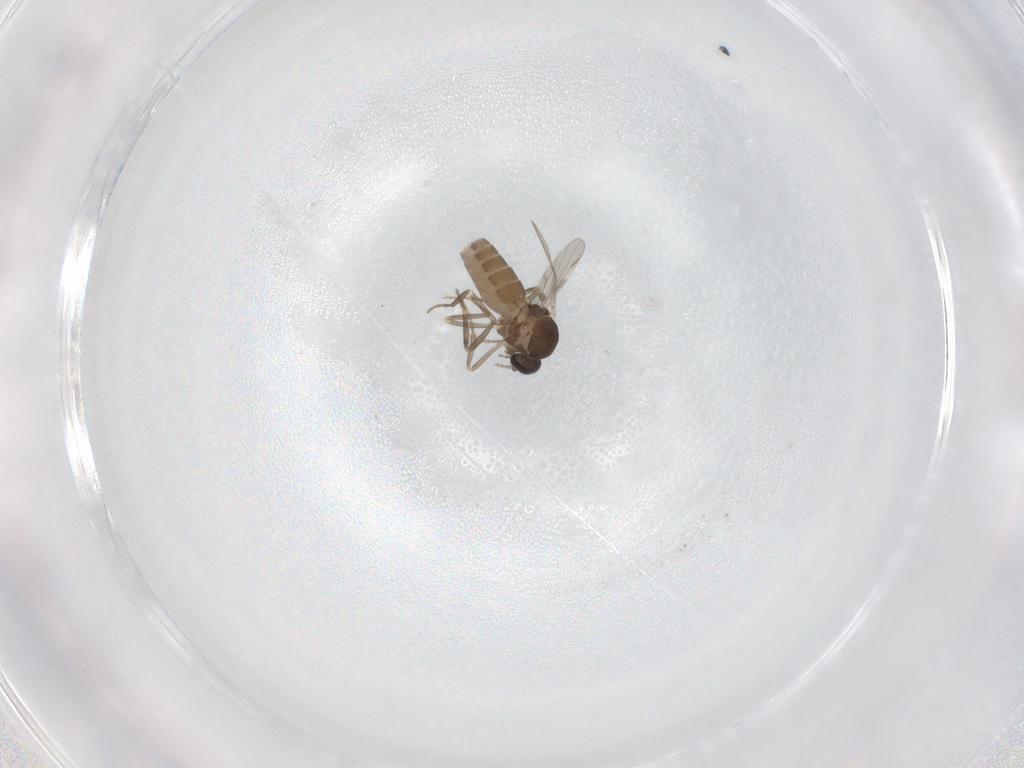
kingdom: Animalia
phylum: Arthropoda
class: Insecta
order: Diptera
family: Ceratopogonidae
